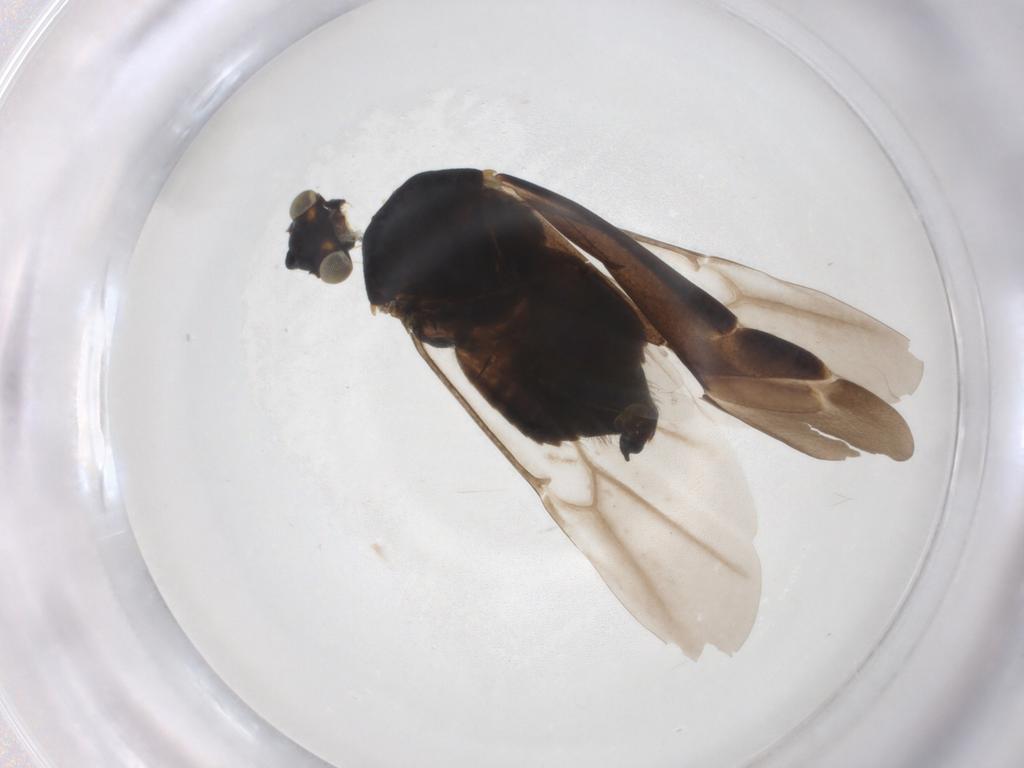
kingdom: Animalia
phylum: Arthropoda
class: Insecta
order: Hemiptera
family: Miridae
